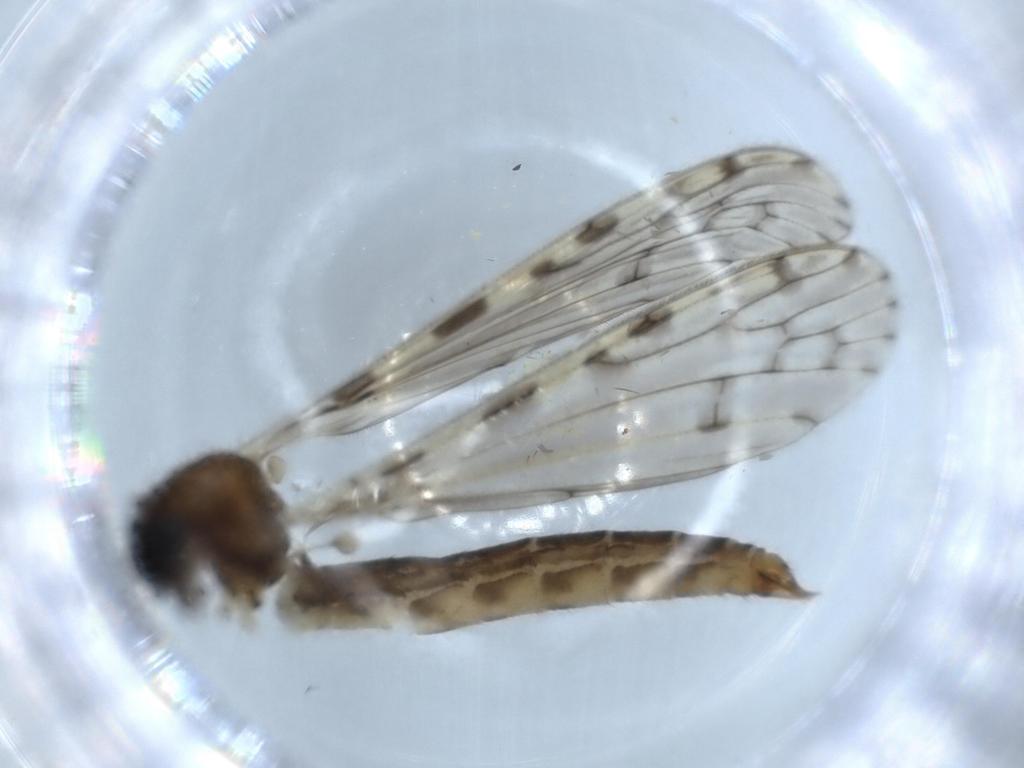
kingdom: Animalia
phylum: Arthropoda
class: Insecta
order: Diptera
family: Sciaridae
